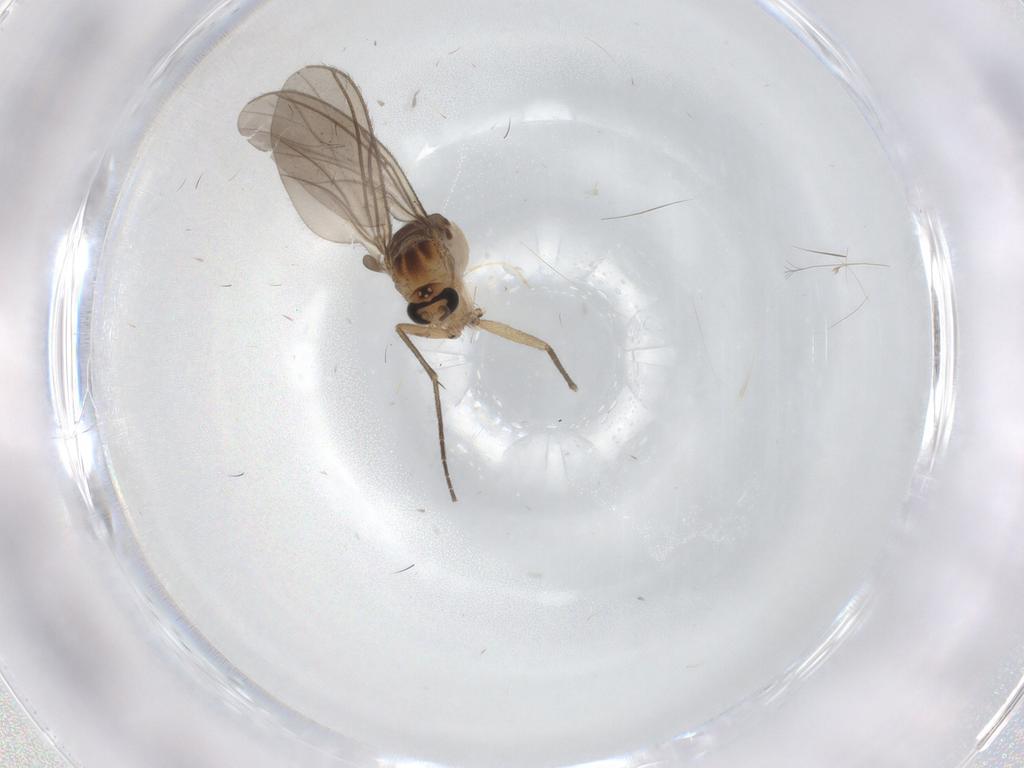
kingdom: Animalia
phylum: Arthropoda
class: Insecta
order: Diptera
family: Sciaridae
